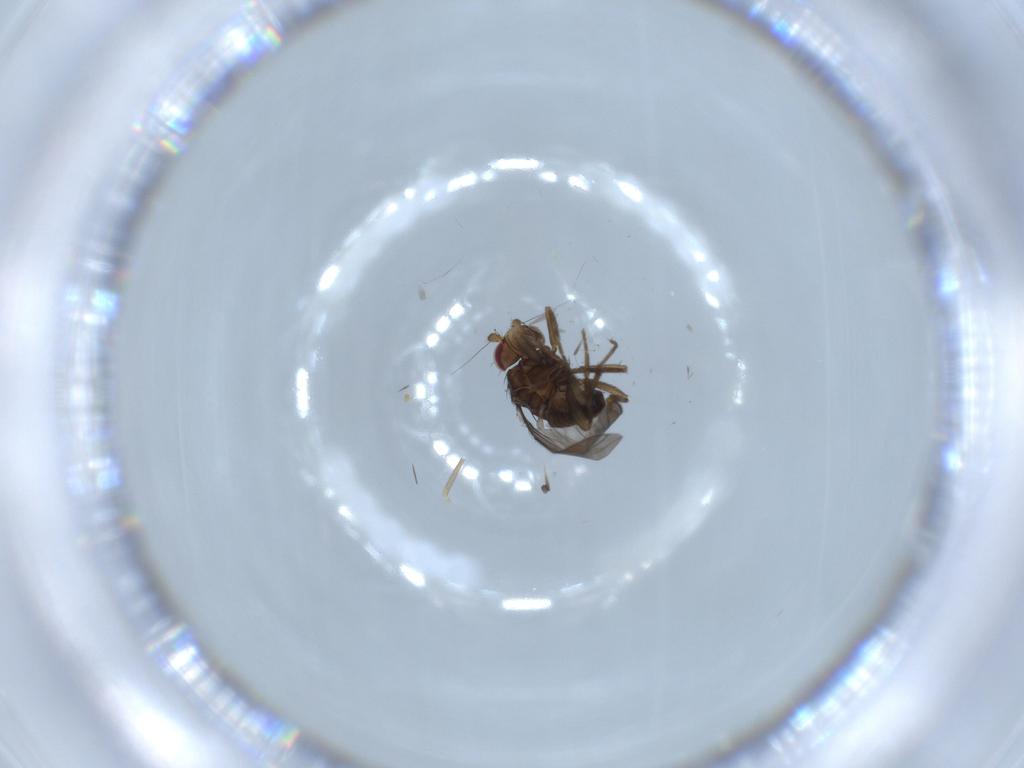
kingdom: Animalia
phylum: Arthropoda
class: Insecta
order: Diptera
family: Ceratopogonidae
